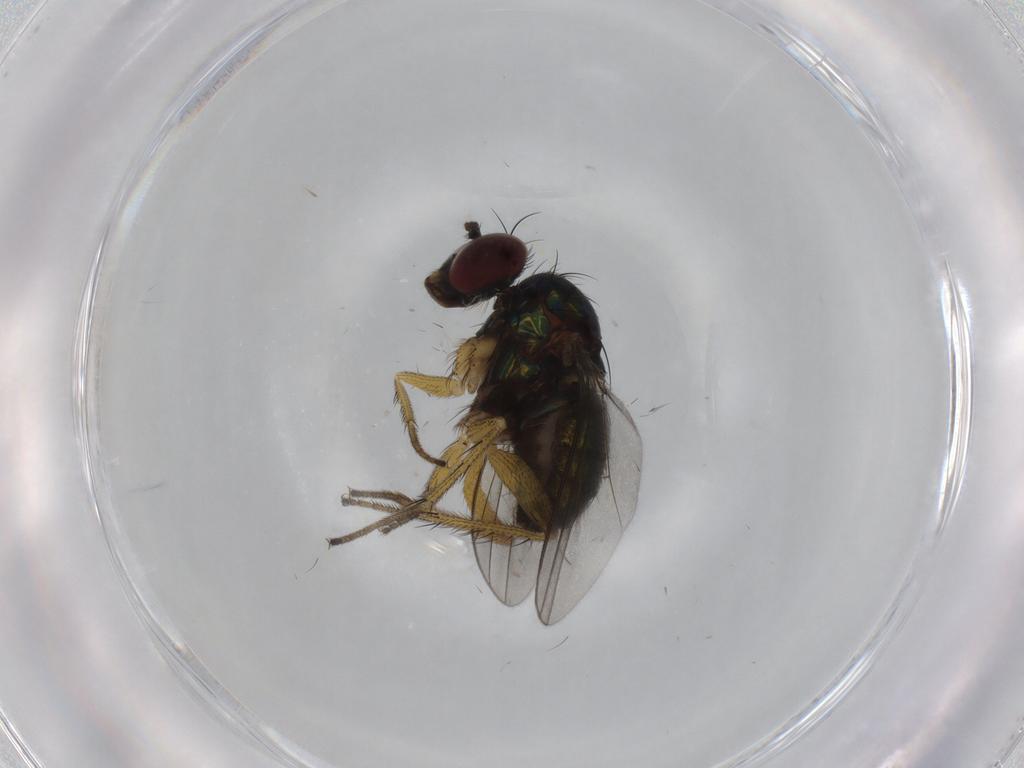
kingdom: Animalia
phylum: Arthropoda
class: Insecta
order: Diptera
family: Dolichopodidae
